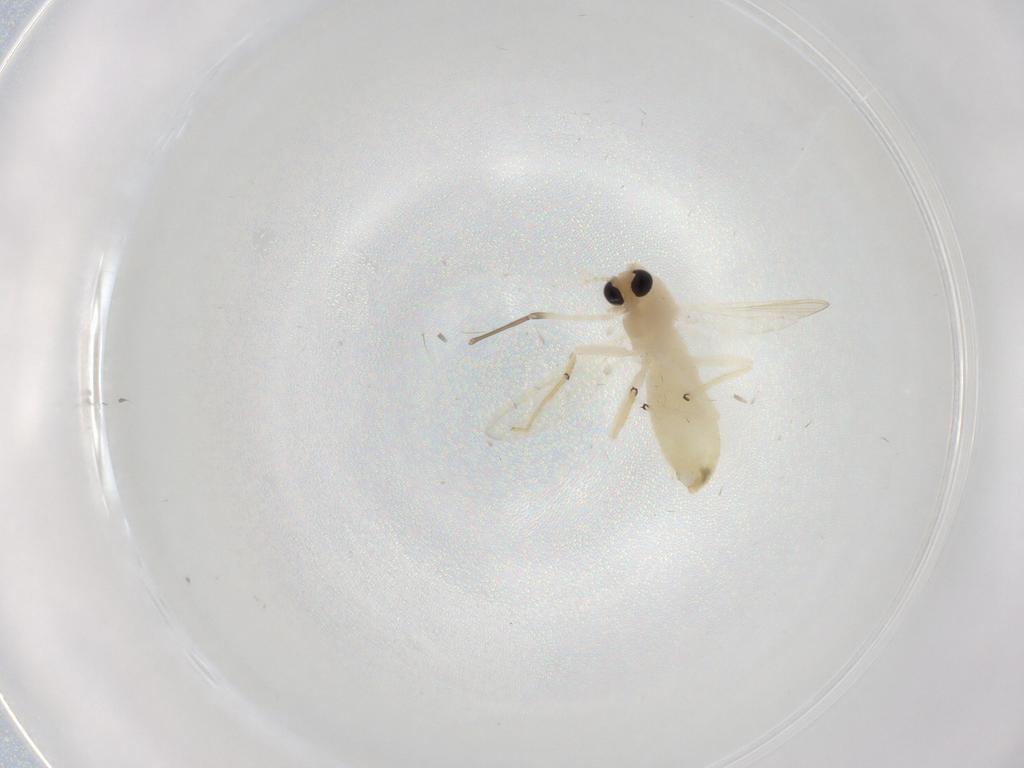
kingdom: Animalia
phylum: Arthropoda
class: Insecta
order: Diptera
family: Chironomidae
